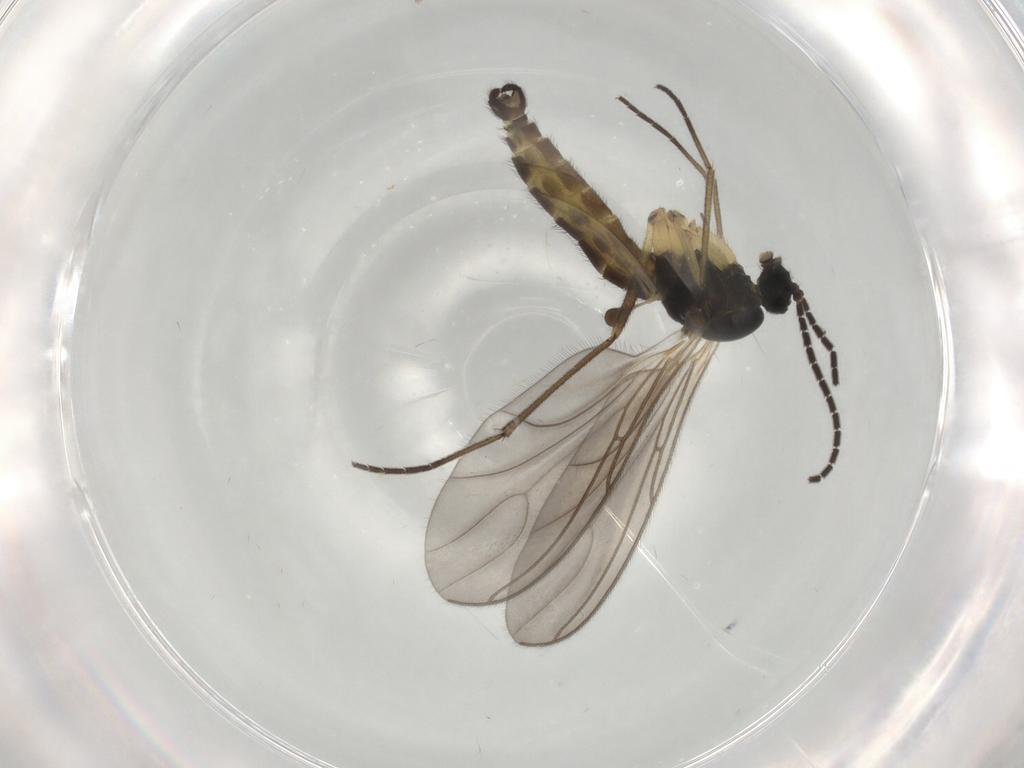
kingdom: Animalia
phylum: Arthropoda
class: Insecta
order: Diptera
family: Sciaridae
